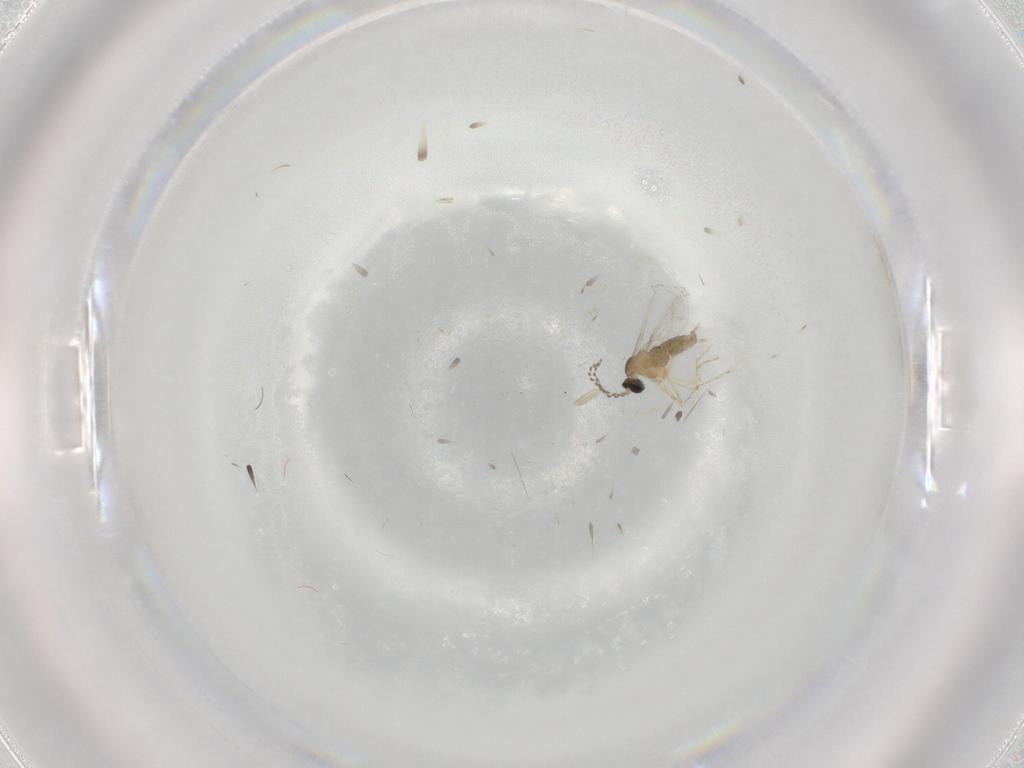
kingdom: Animalia
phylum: Arthropoda
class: Insecta
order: Diptera
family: Cecidomyiidae
